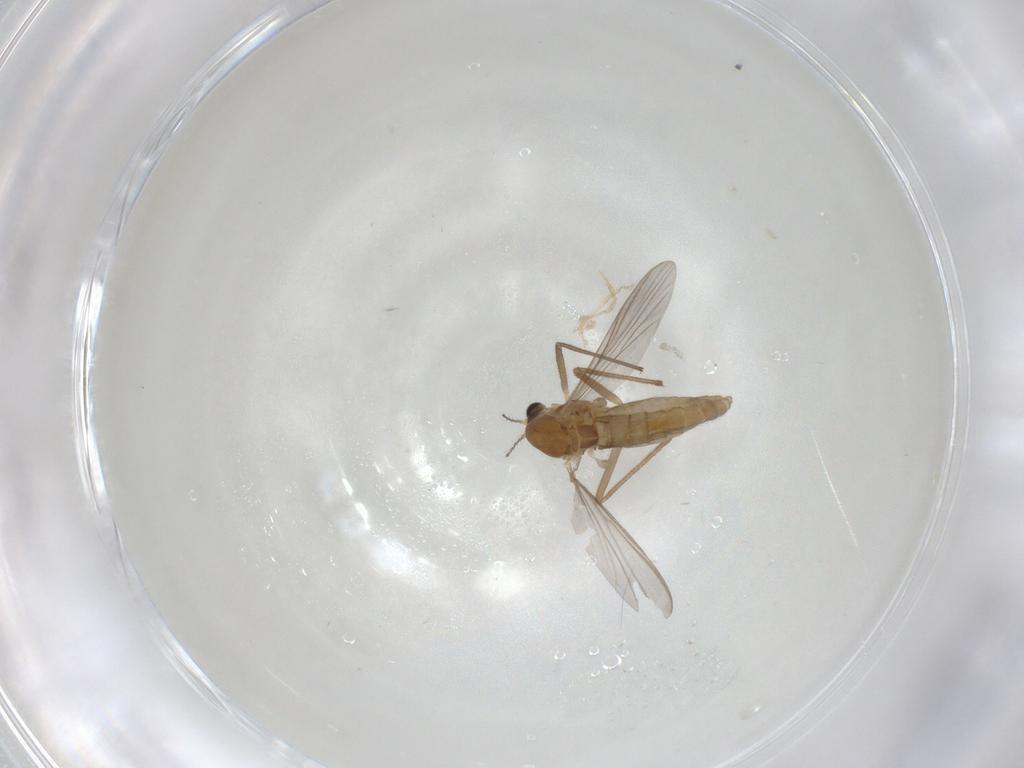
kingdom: Animalia
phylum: Arthropoda
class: Insecta
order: Diptera
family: Chironomidae
